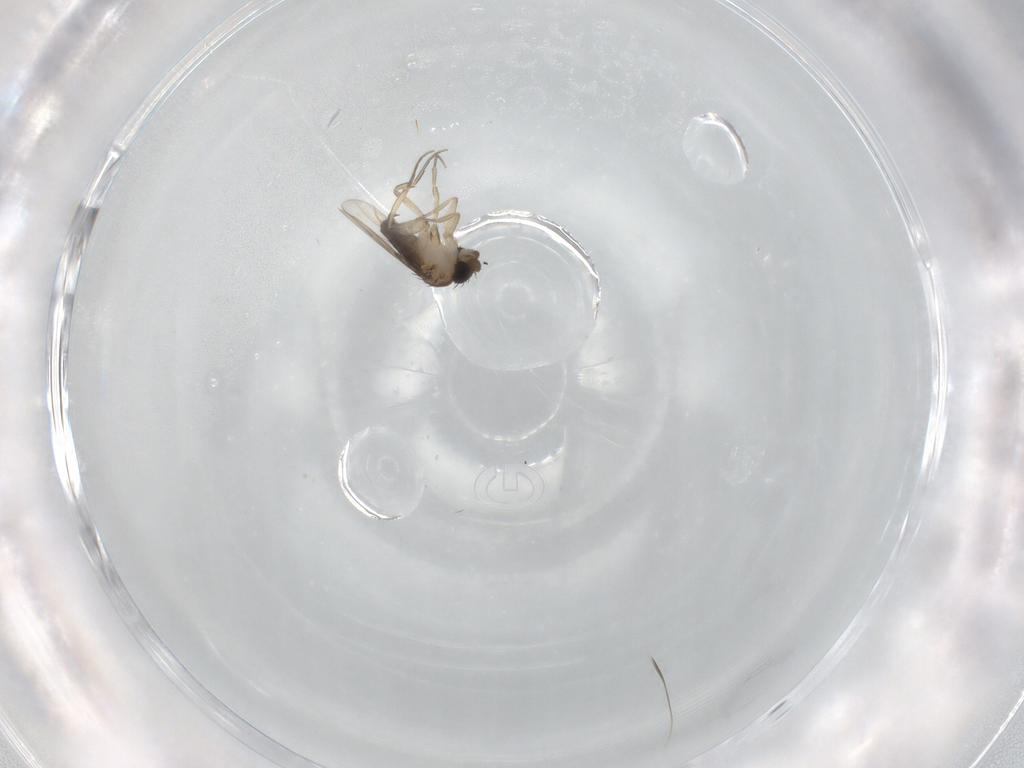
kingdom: Animalia
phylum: Arthropoda
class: Insecta
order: Diptera
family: Phoridae
